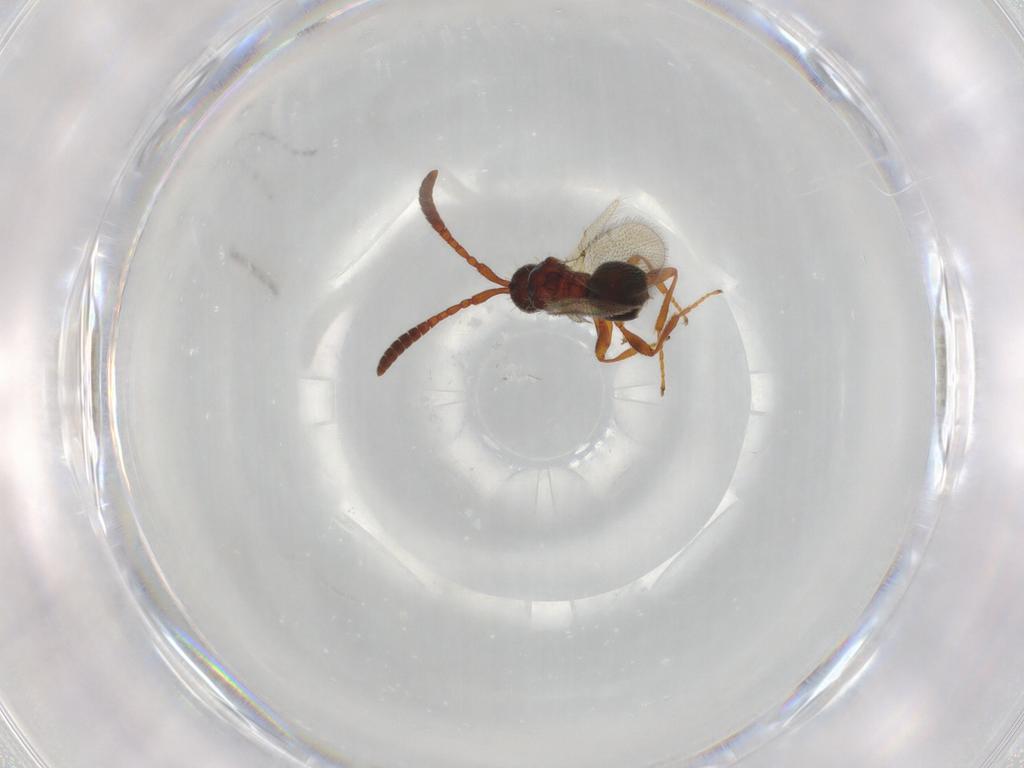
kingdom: Animalia
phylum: Arthropoda
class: Insecta
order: Hymenoptera
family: Diapriidae
